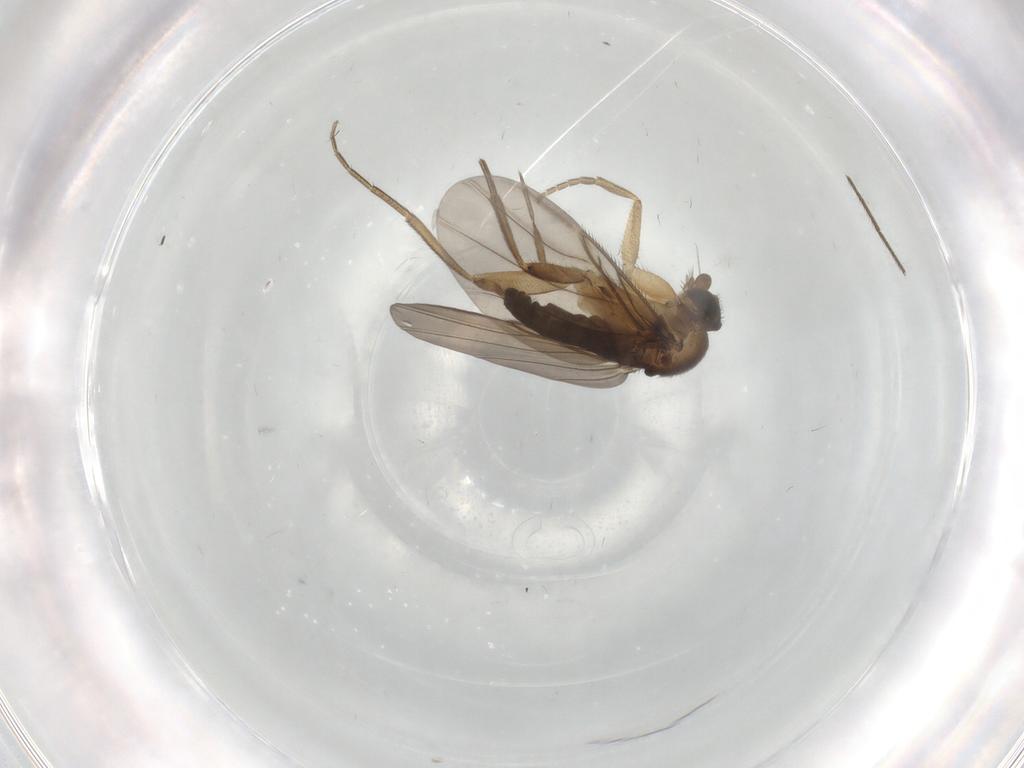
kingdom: Animalia
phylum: Arthropoda
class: Insecta
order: Diptera
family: Phoridae
